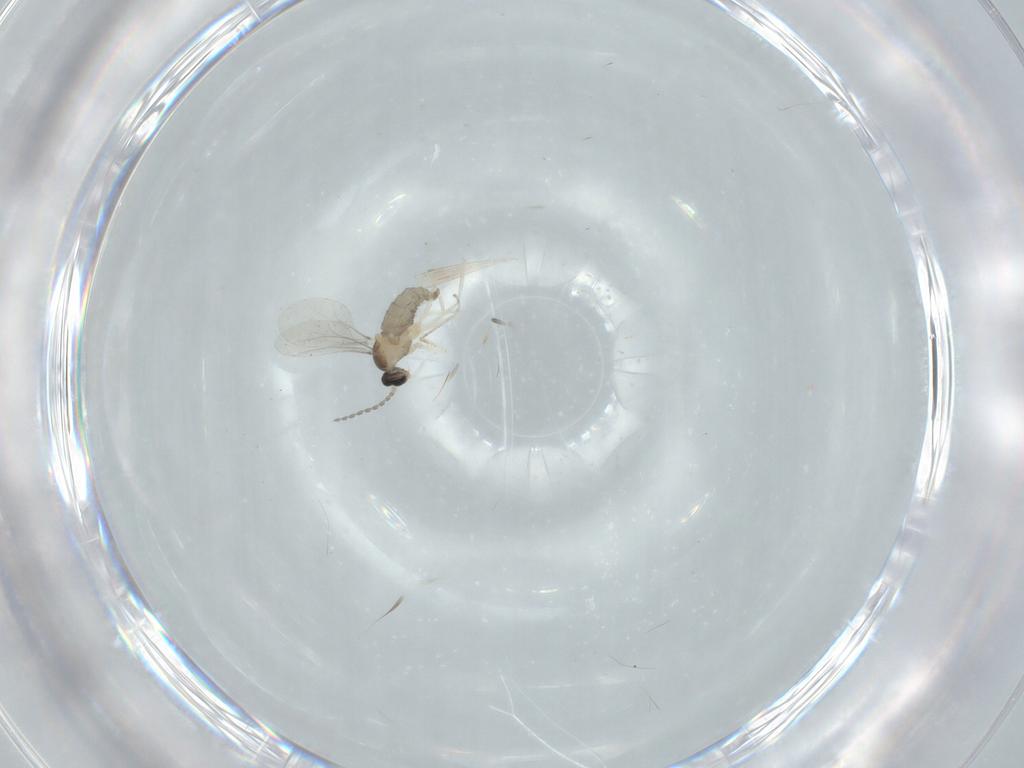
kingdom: Animalia
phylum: Arthropoda
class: Insecta
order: Diptera
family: Cecidomyiidae
